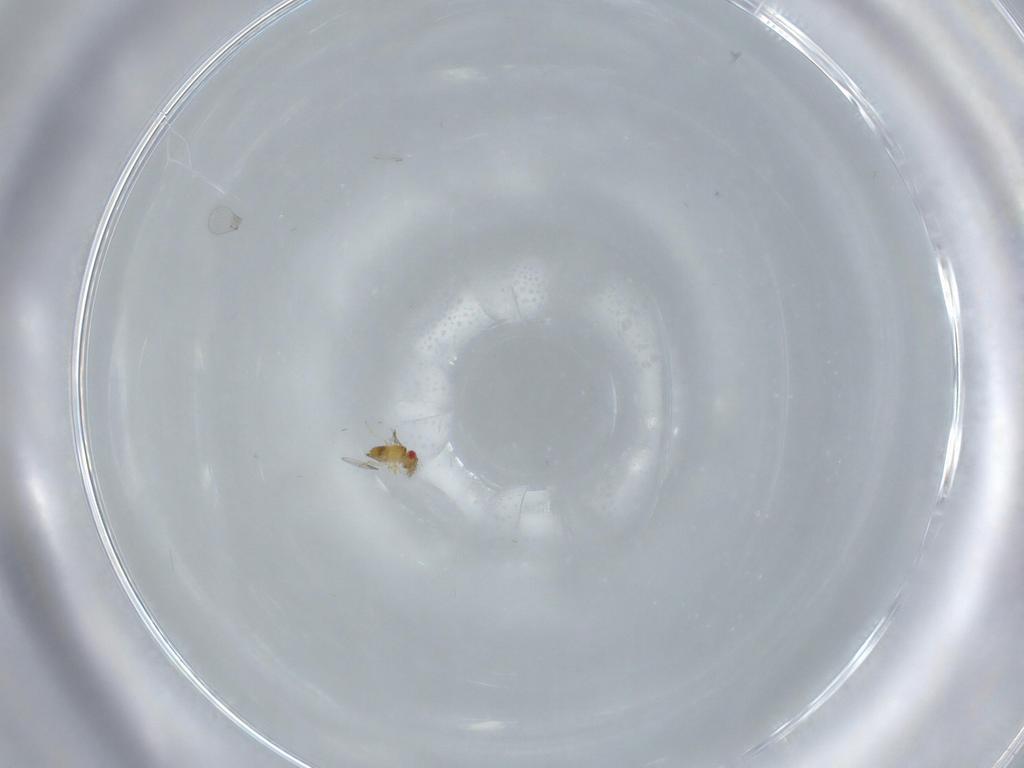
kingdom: Animalia
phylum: Arthropoda
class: Insecta
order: Hymenoptera
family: Trichogrammatidae
